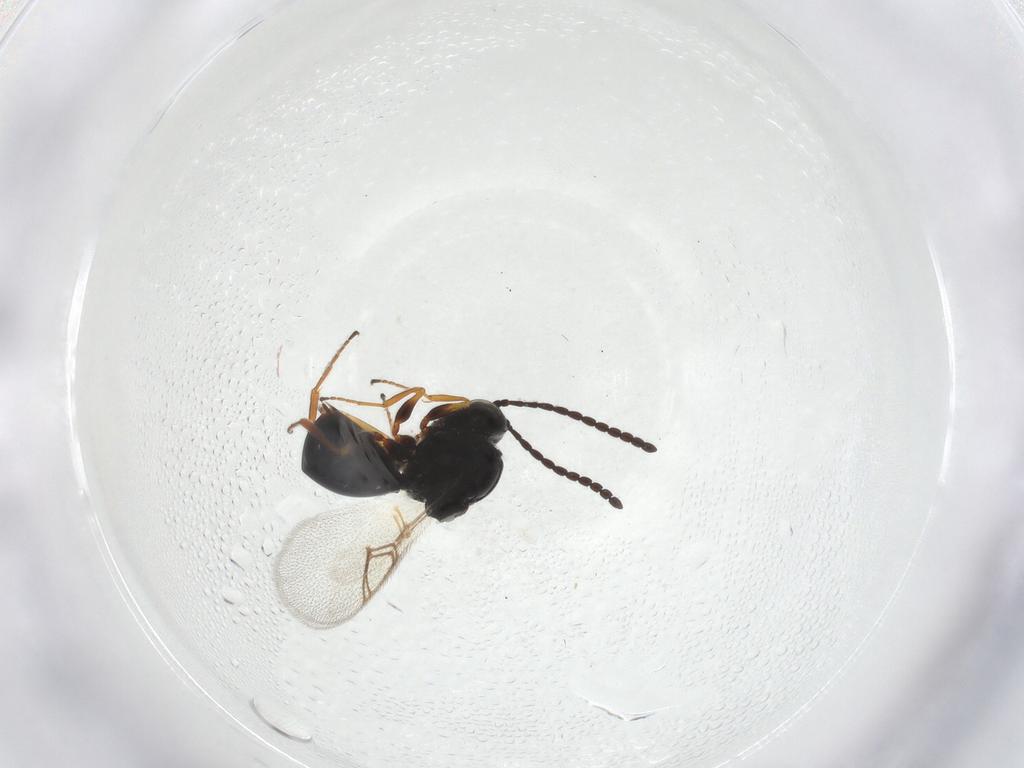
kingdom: Animalia
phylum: Arthropoda
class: Insecta
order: Hymenoptera
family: Figitidae
